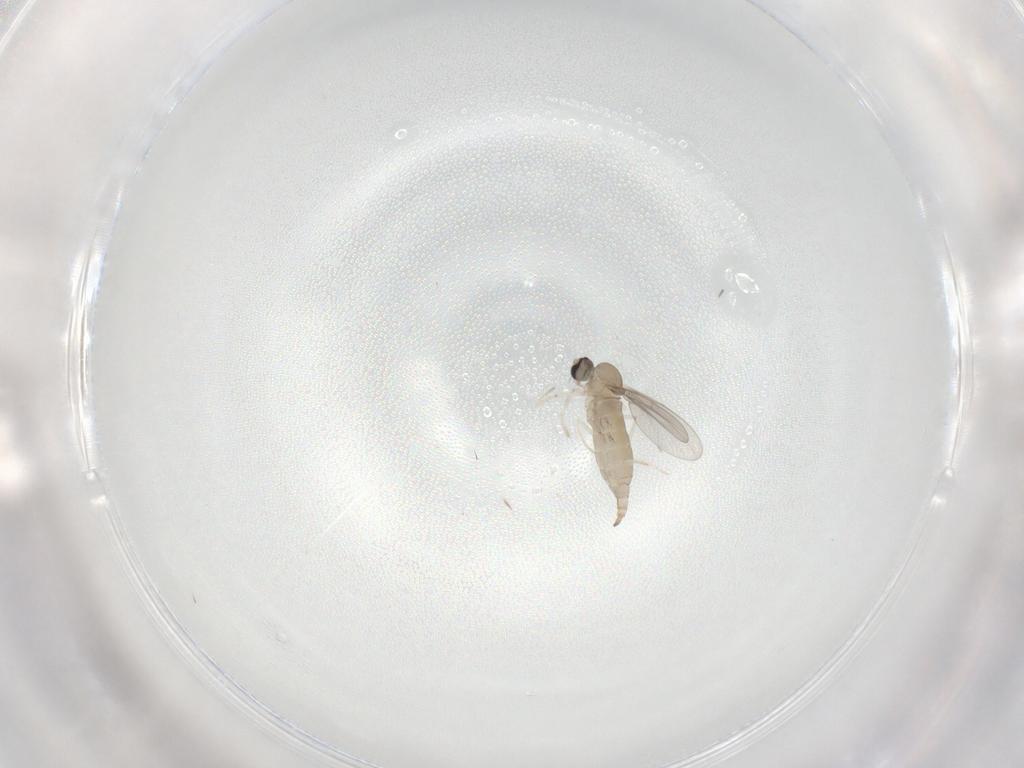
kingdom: Animalia
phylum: Arthropoda
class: Insecta
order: Diptera
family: Cecidomyiidae
